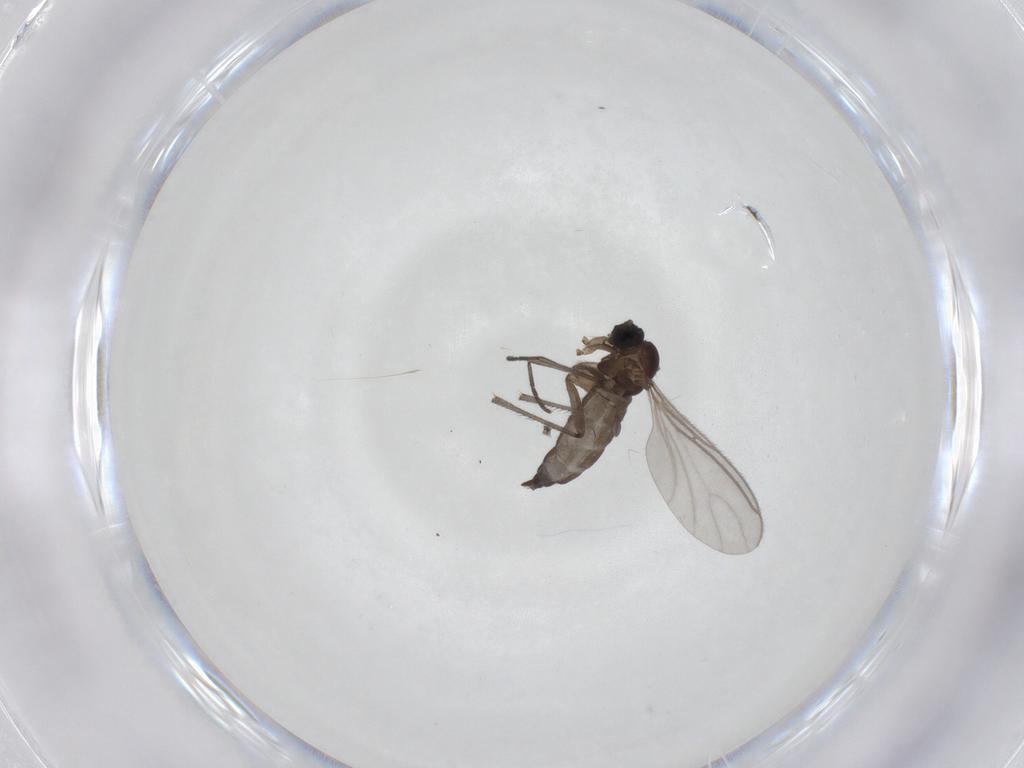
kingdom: Animalia
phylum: Arthropoda
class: Insecta
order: Diptera
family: Sciaridae
